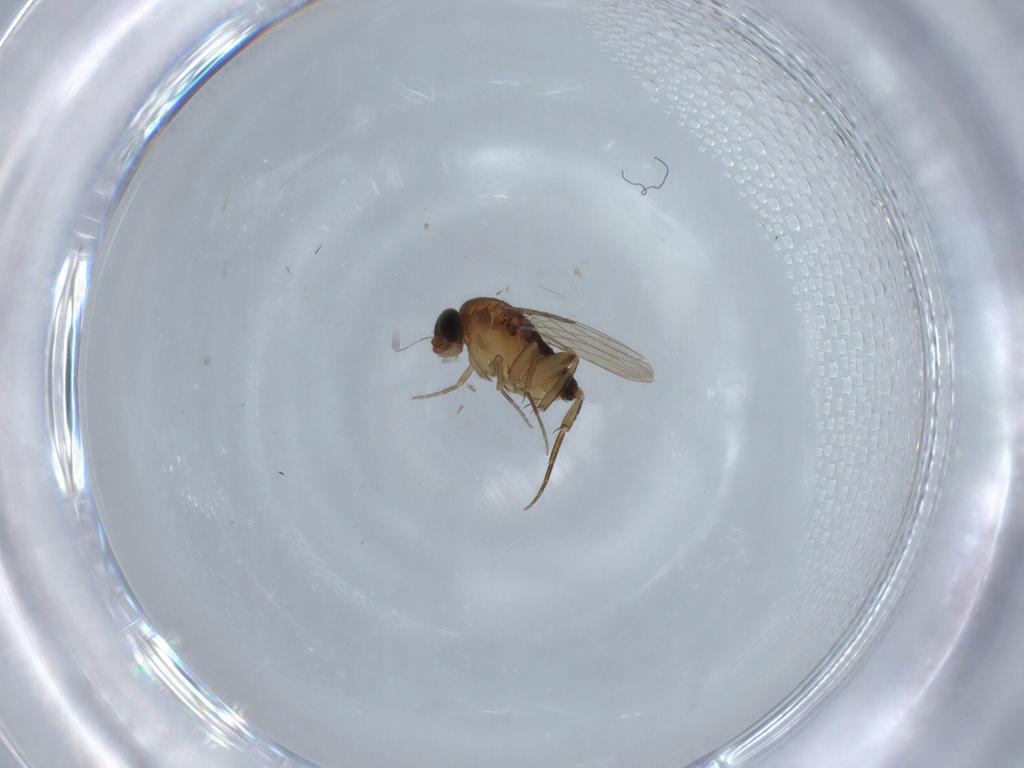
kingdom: Animalia
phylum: Arthropoda
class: Insecta
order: Diptera
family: Phoridae
